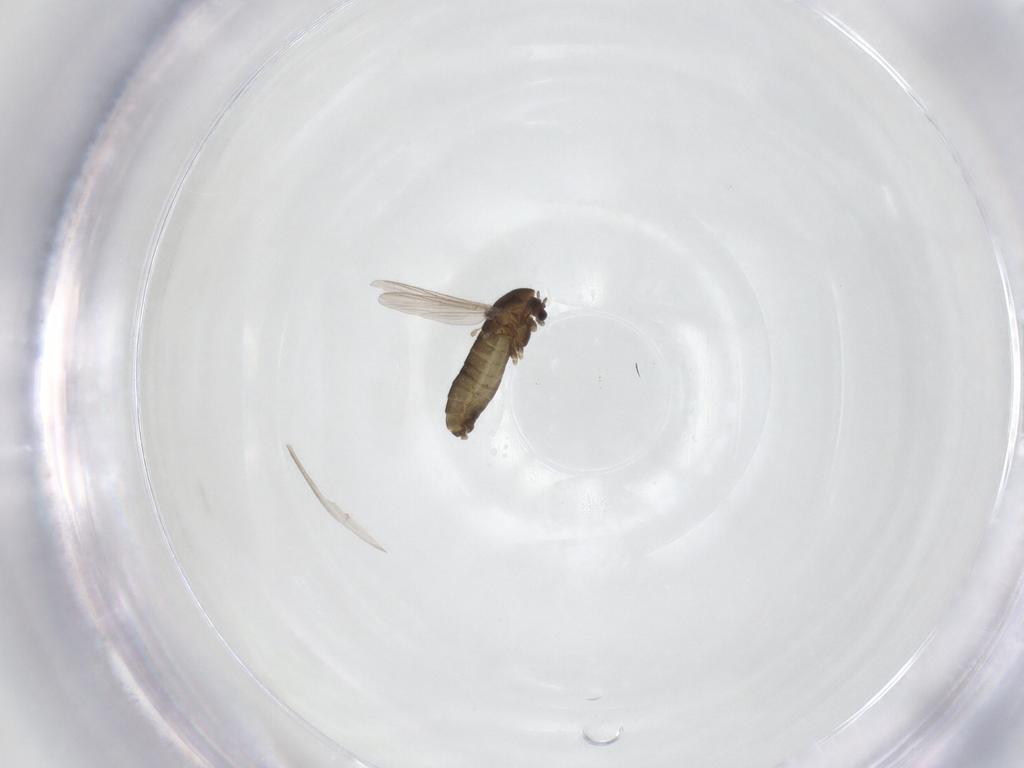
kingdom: Animalia
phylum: Arthropoda
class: Insecta
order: Diptera
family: Chironomidae
